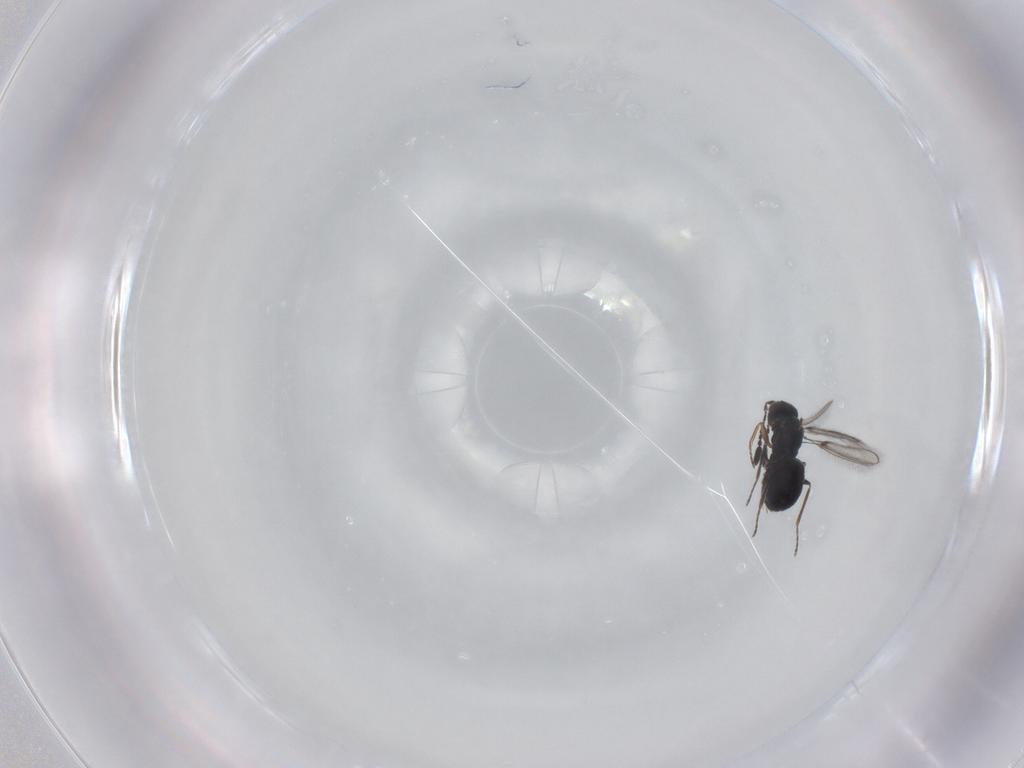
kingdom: Animalia
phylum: Arthropoda
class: Insecta
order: Hymenoptera
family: Mymaridae
